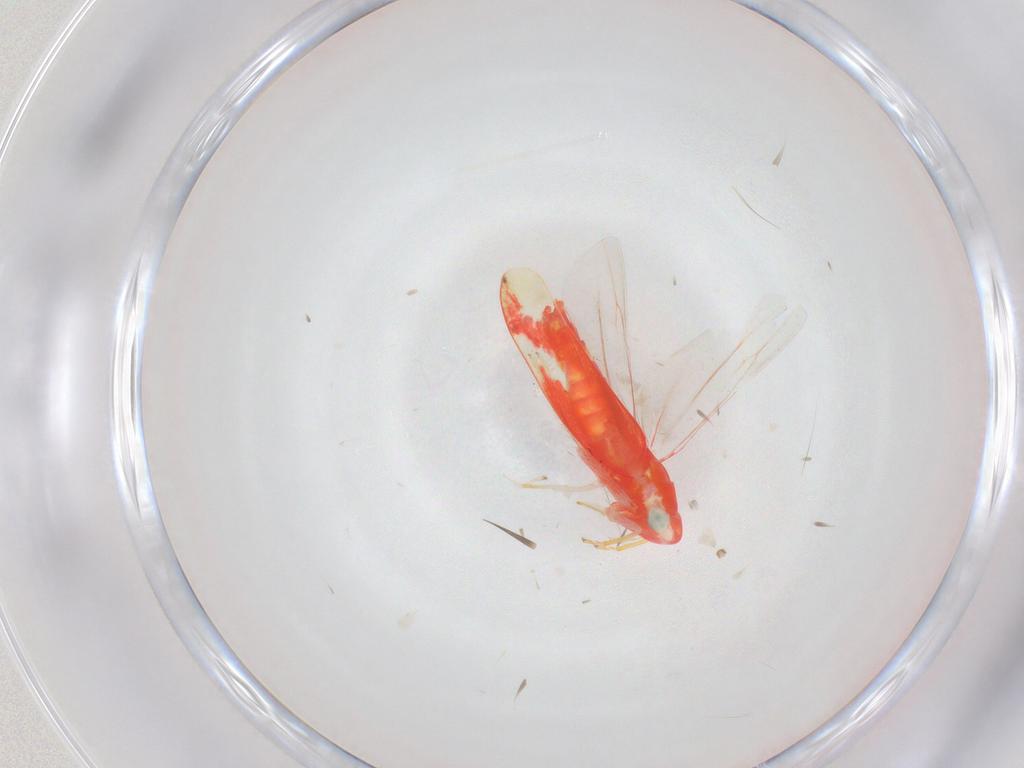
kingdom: Animalia
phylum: Arthropoda
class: Insecta
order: Hemiptera
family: Cicadellidae
